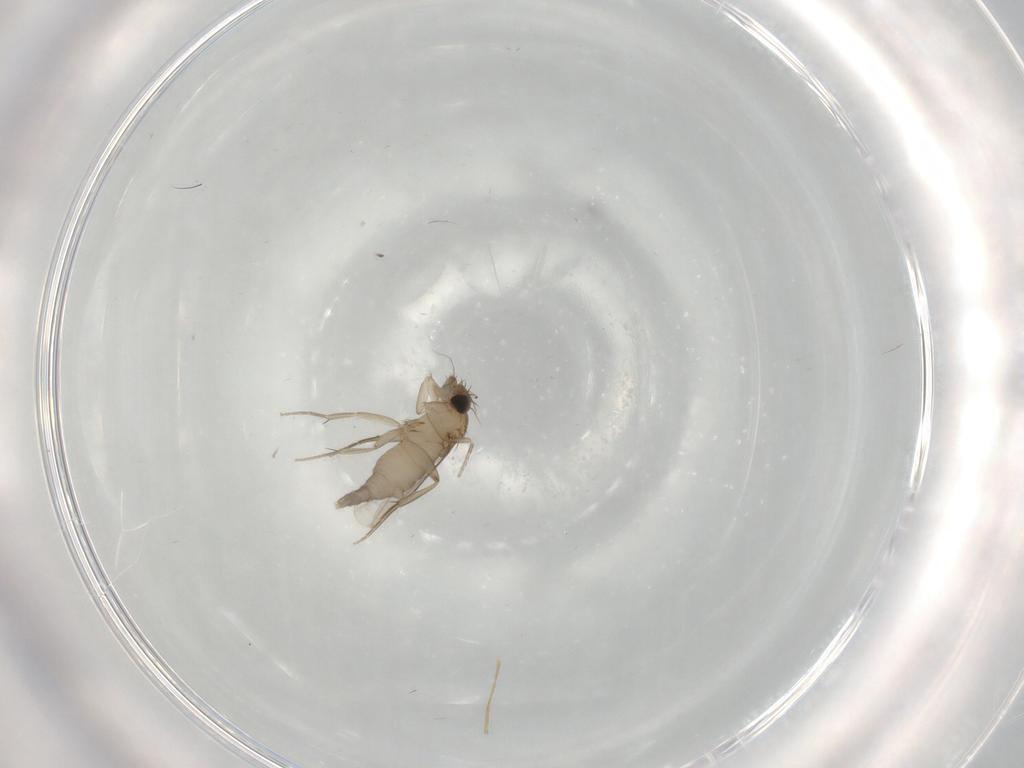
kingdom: Animalia
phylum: Arthropoda
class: Insecta
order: Diptera
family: Phoridae
